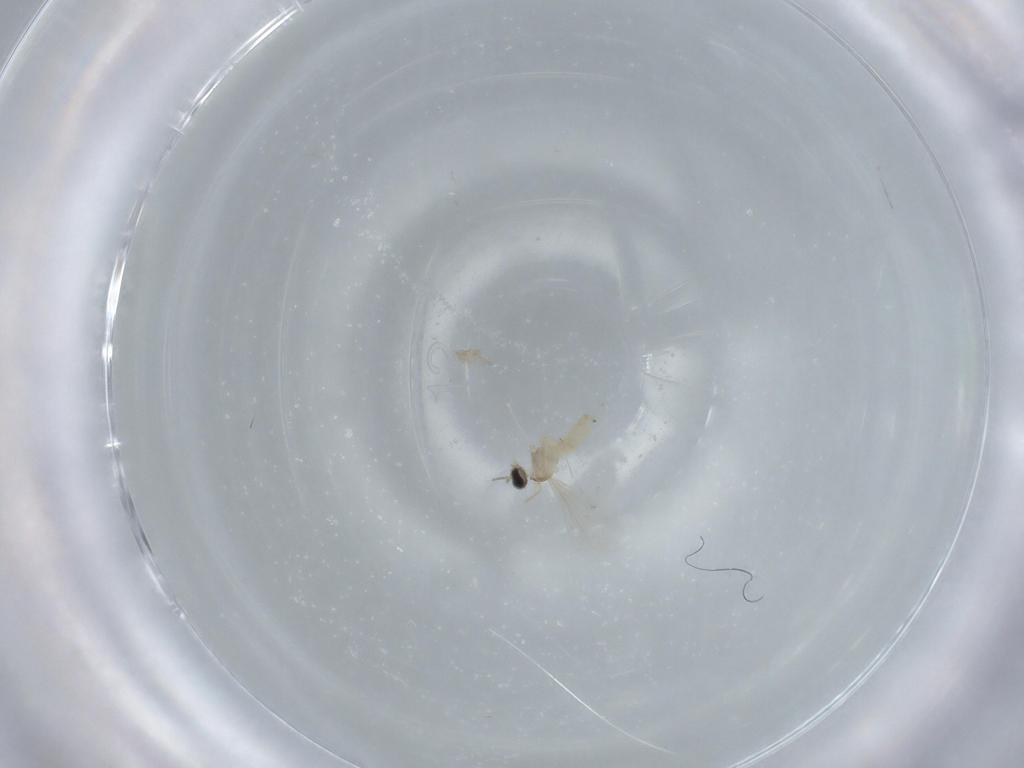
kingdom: Animalia
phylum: Arthropoda
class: Insecta
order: Diptera
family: Cecidomyiidae
